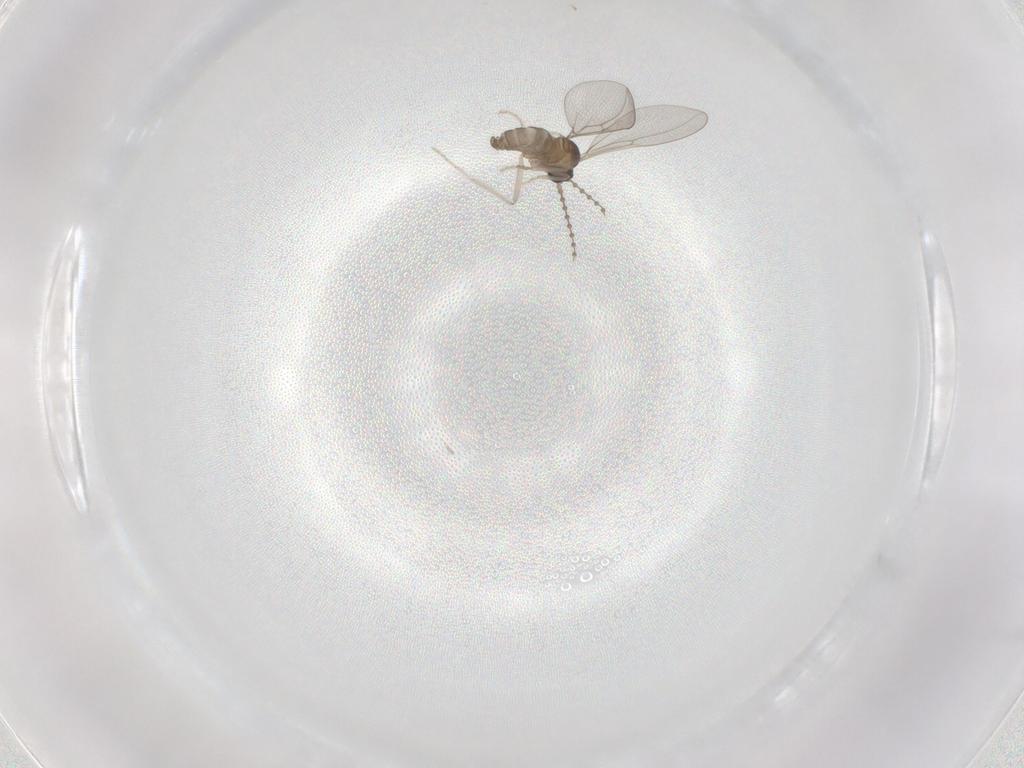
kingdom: Animalia
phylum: Arthropoda
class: Insecta
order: Diptera
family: Cecidomyiidae
